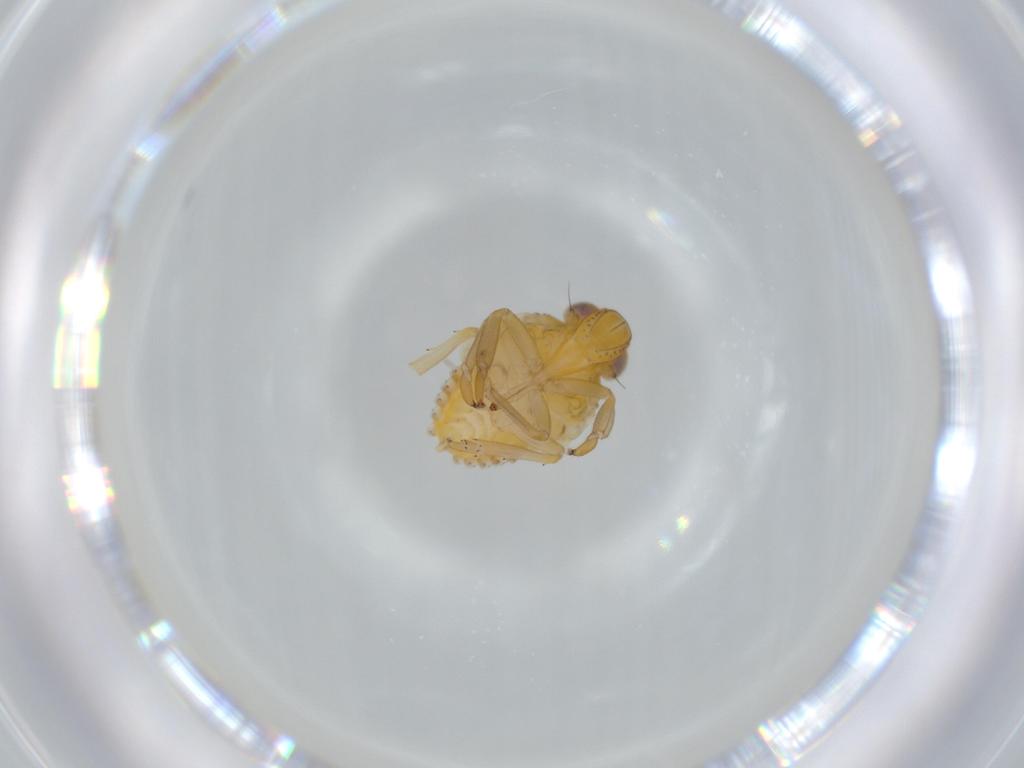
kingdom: Animalia
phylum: Arthropoda
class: Insecta
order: Hemiptera
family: Issidae
